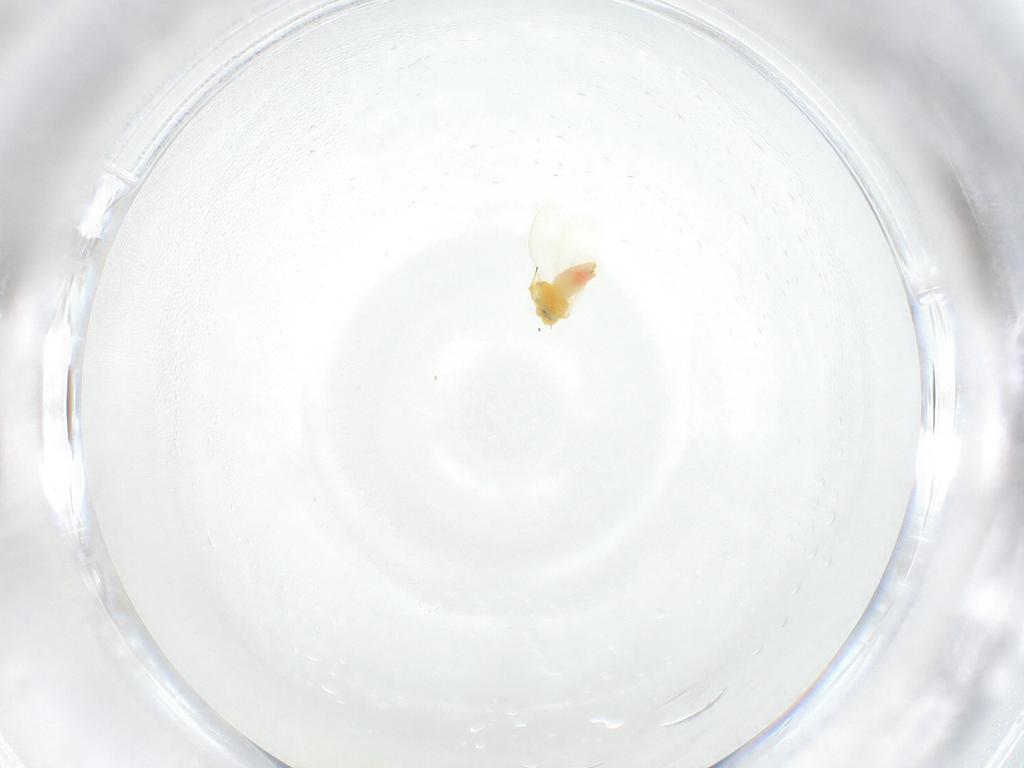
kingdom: Animalia
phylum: Arthropoda
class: Insecta
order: Hemiptera
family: Aleyrodidae
